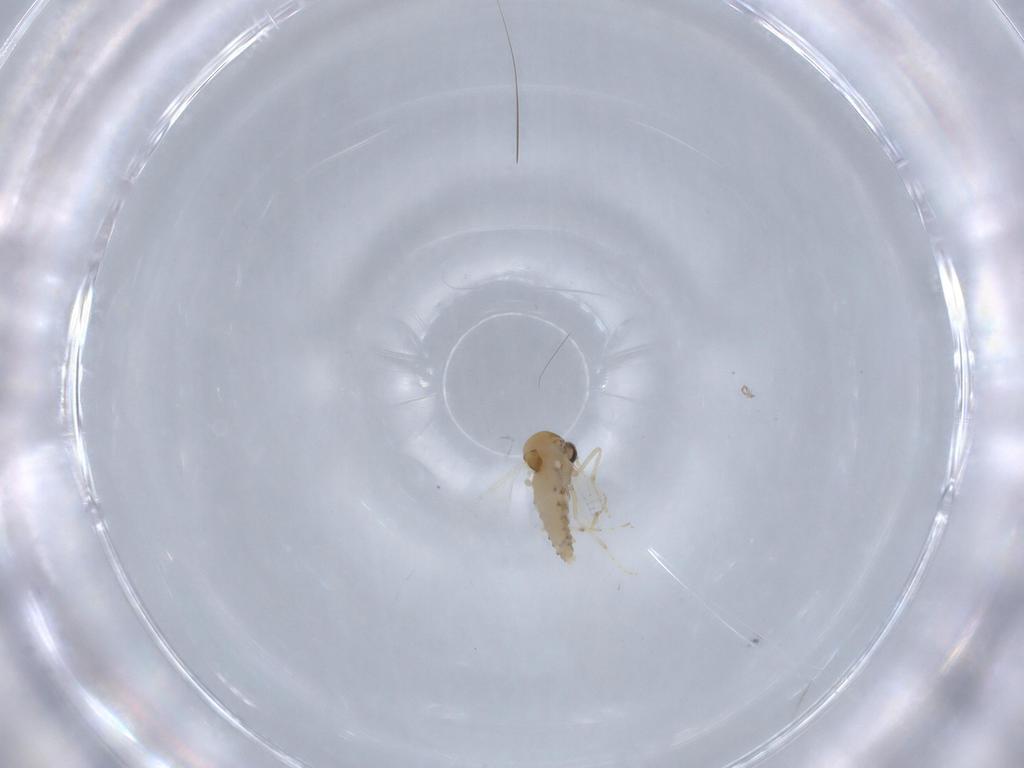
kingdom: Animalia
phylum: Arthropoda
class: Insecta
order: Diptera
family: Ceratopogonidae
